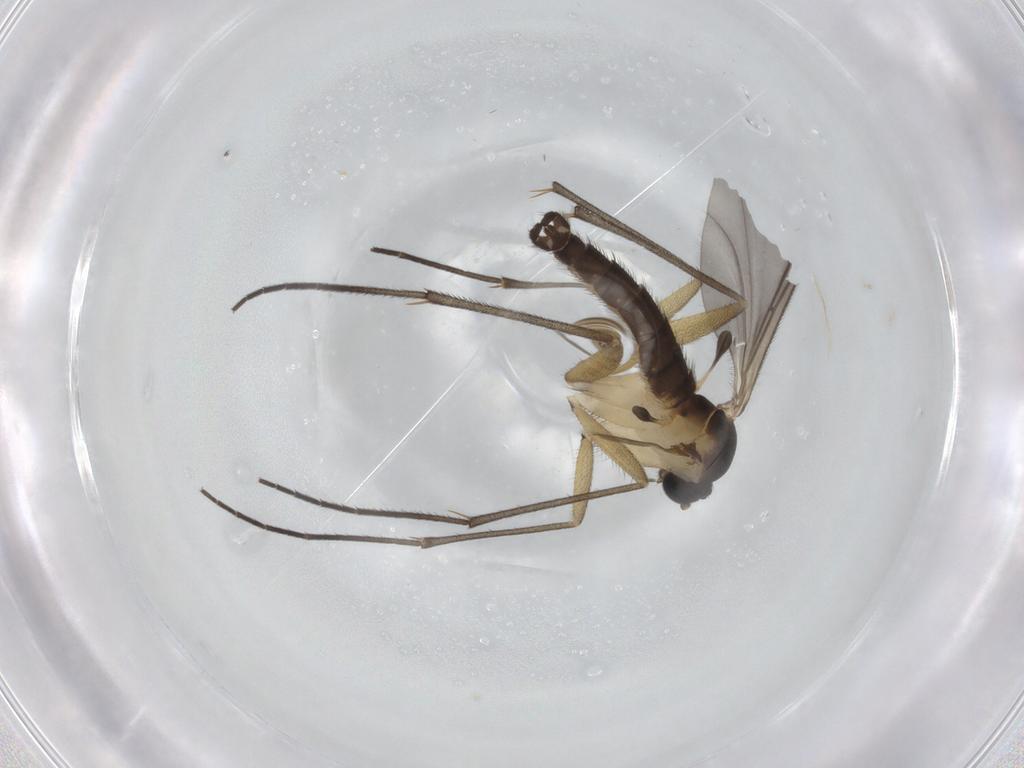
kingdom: Animalia
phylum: Arthropoda
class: Insecta
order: Diptera
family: Sciaridae
